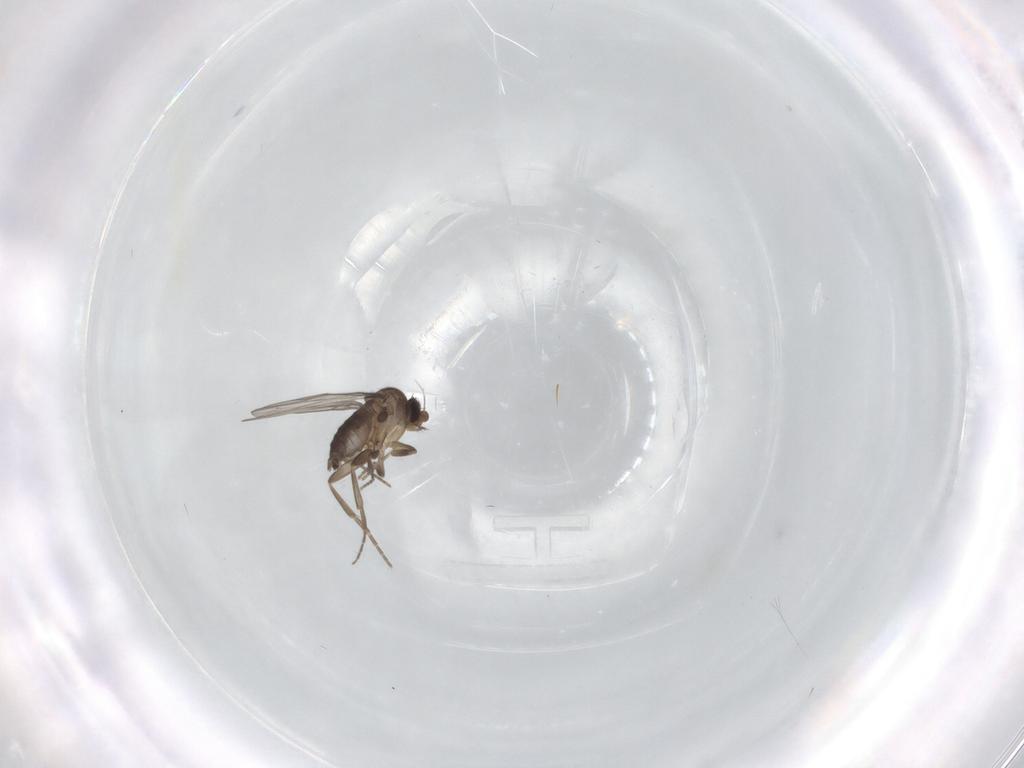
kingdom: Animalia
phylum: Arthropoda
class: Insecta
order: Diptera
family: Phoridae
